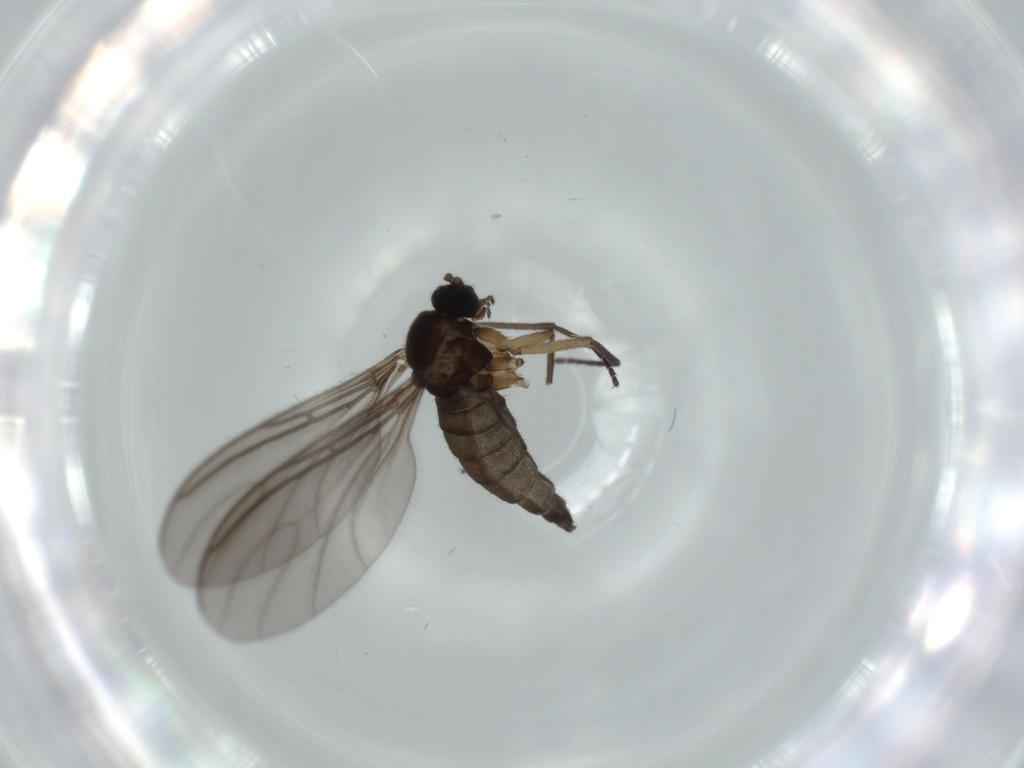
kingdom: Animalia
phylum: Arthropoda
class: Insecta
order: Diptera
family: Sciaridae
